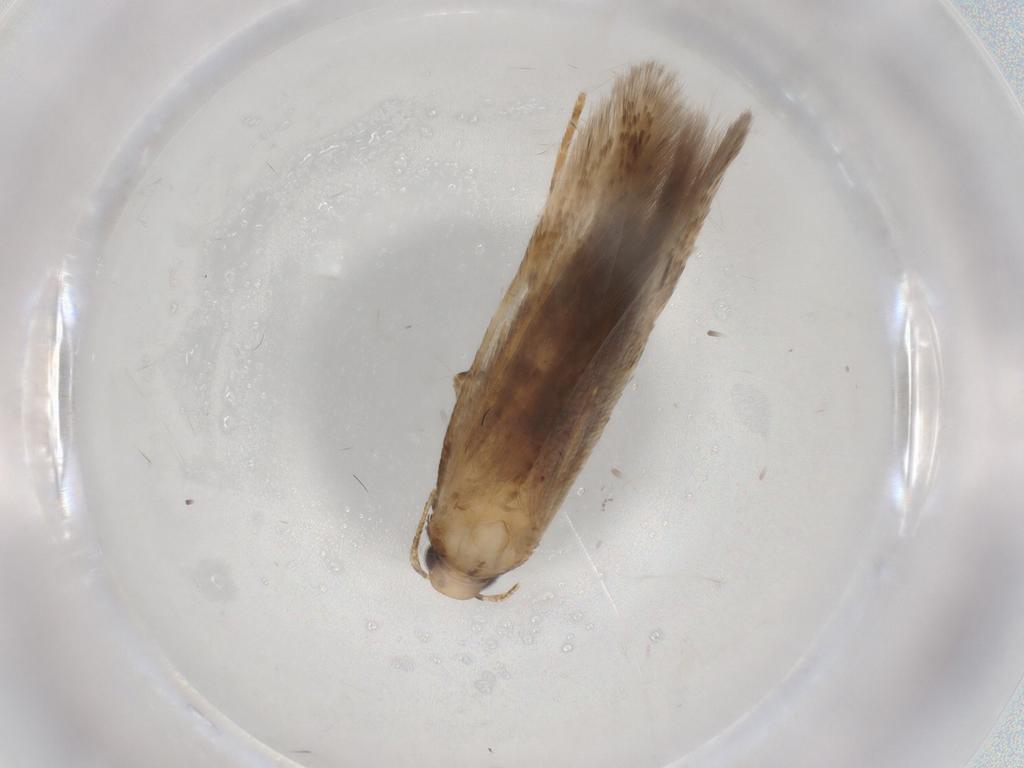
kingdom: Animalia
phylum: Arthropoda
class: Insecta
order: Lepidoptera
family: Gelechiidae
